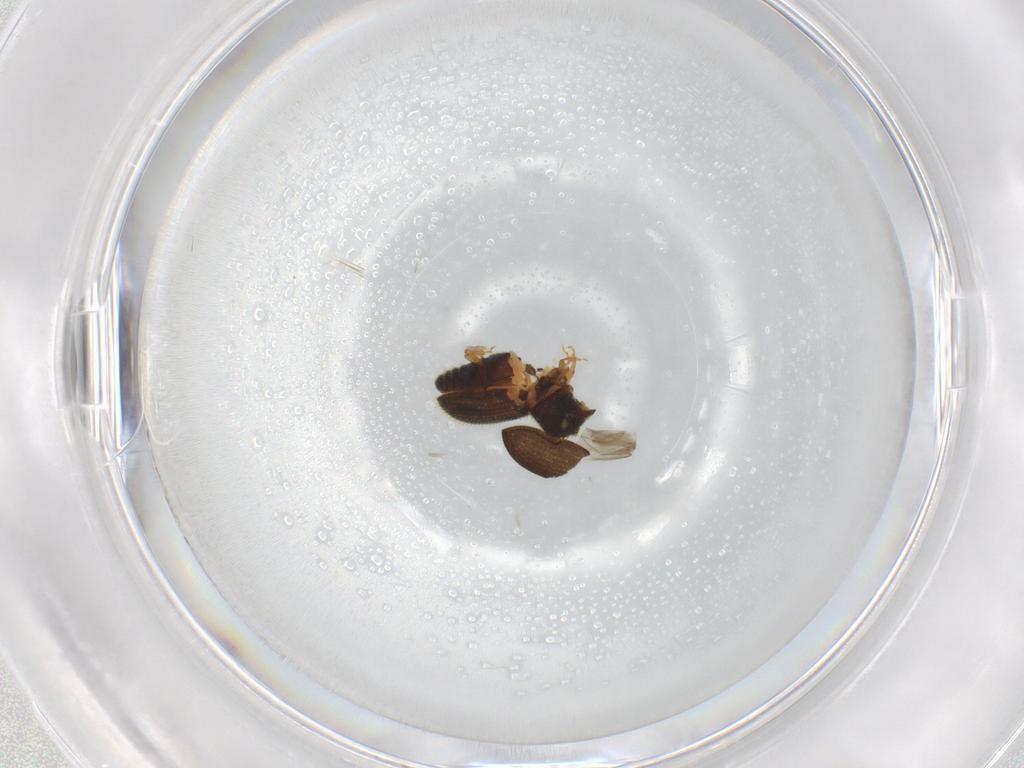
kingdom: Animalia
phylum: Arthropoda
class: Insecta
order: Coleoptera
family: Curculionidae
